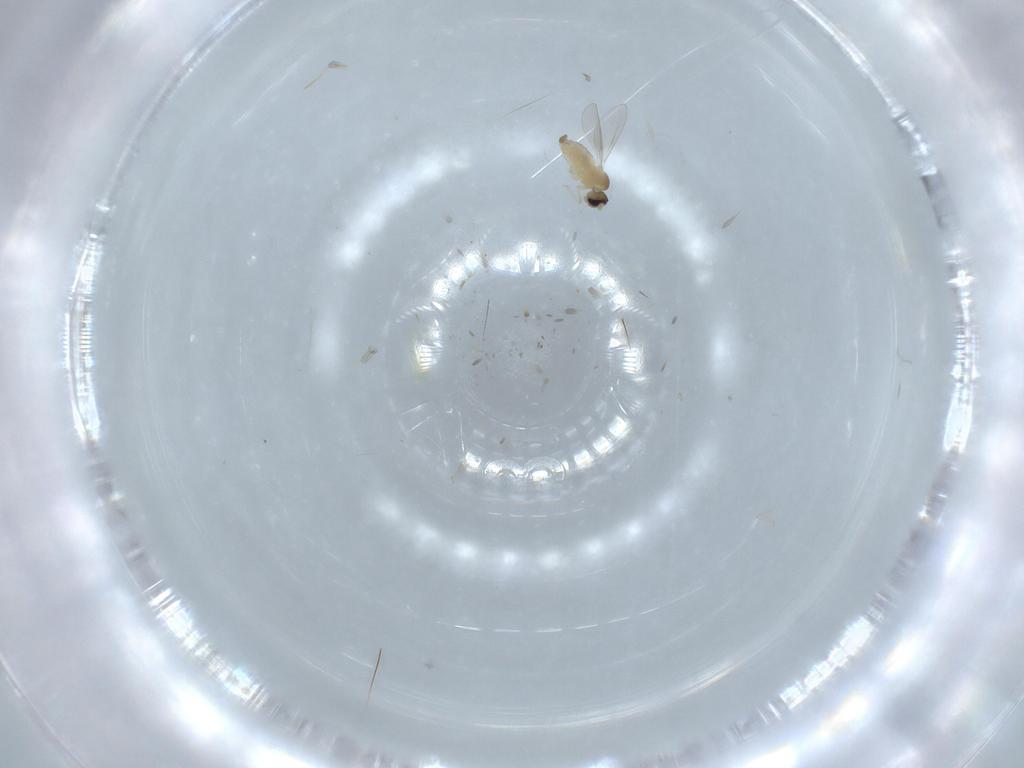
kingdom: Animalia
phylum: Arthropoda
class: Insecta
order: Diptera
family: Cecidomyiidae
